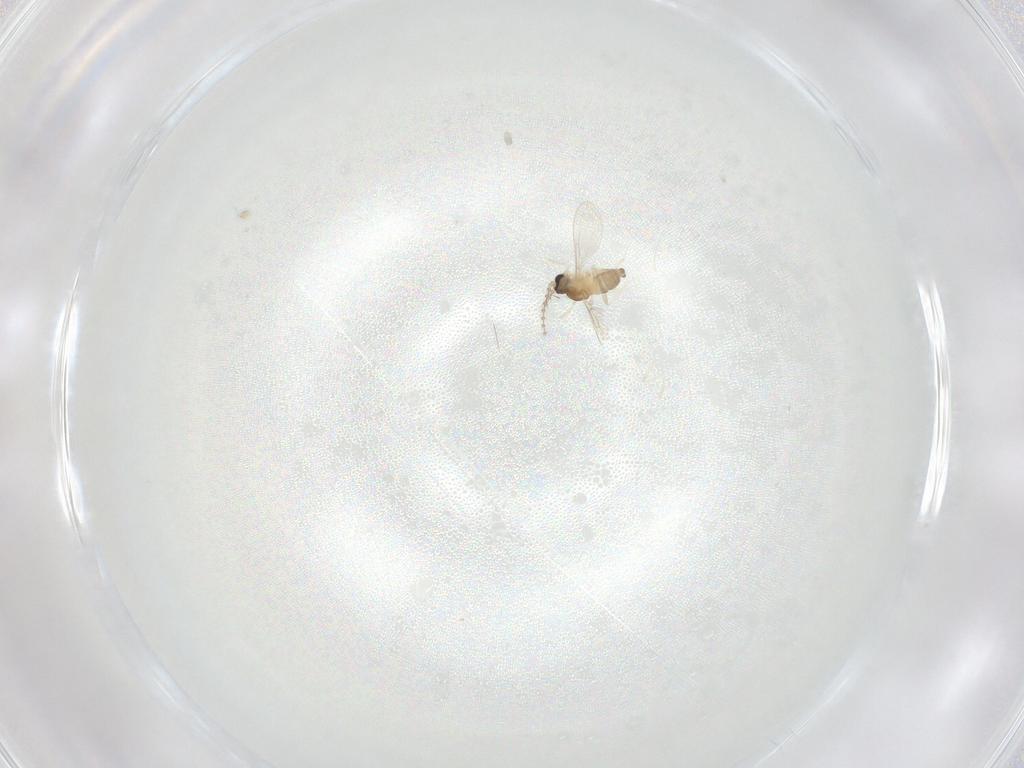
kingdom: Animalia
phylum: Arthropoda
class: Insecta
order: Diptera
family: Cecidomyiidae
